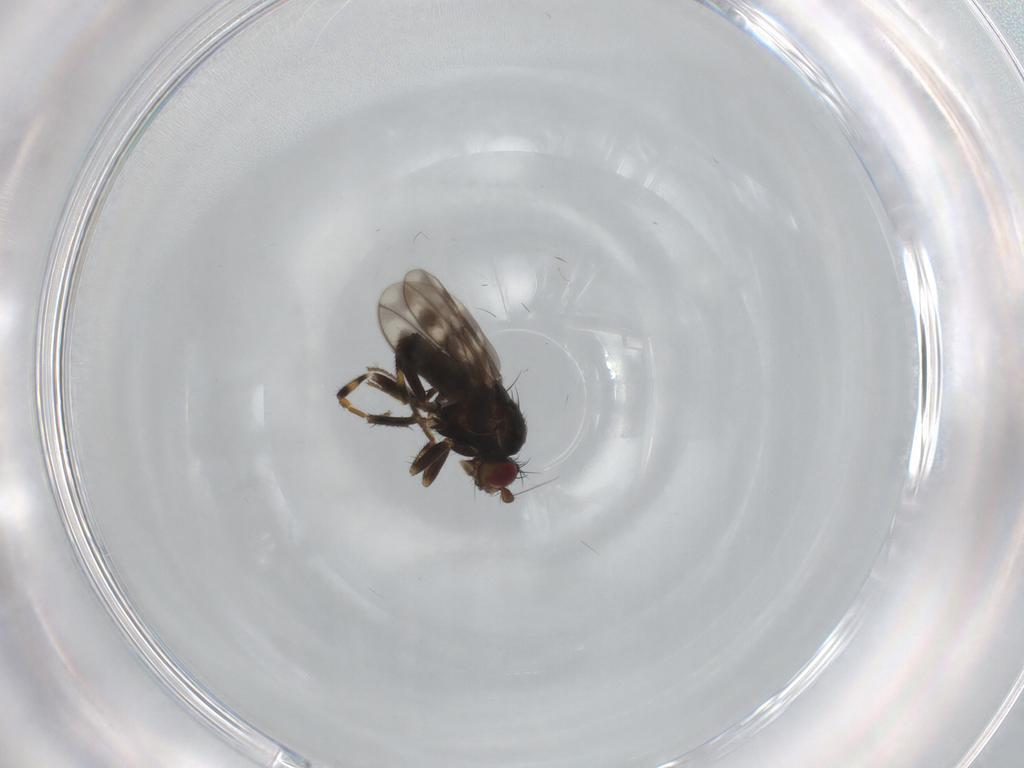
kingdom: Animalia
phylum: Arthropoda
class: Insecta
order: Diptera
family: Sphaeroceridae
